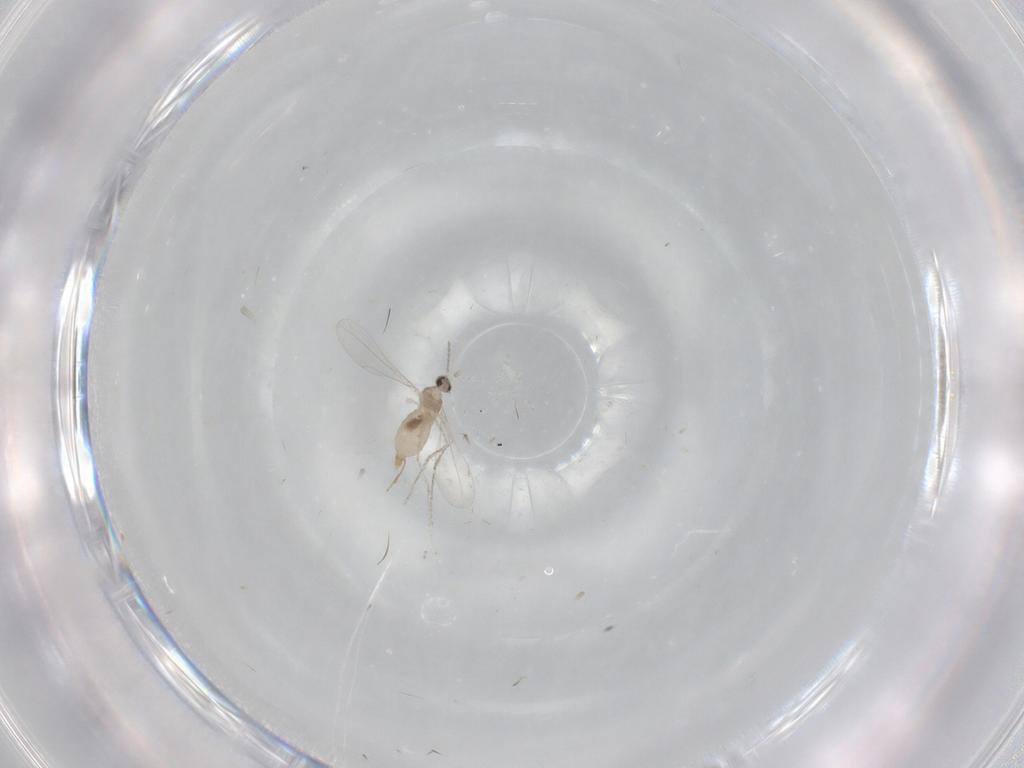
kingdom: Animalia
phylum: Arthropoda
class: Insecta
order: Diptera
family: Cecidomyiidae
